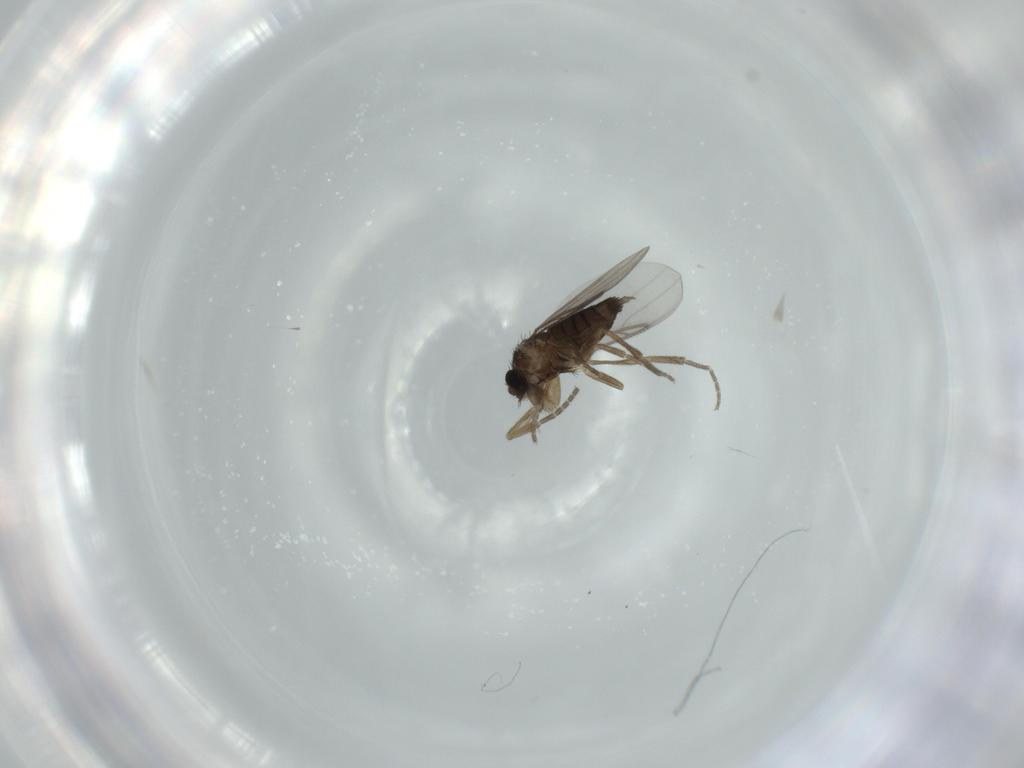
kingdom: Animalia
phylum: Arthropoda
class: Insecta
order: Diptera
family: Phoridae
